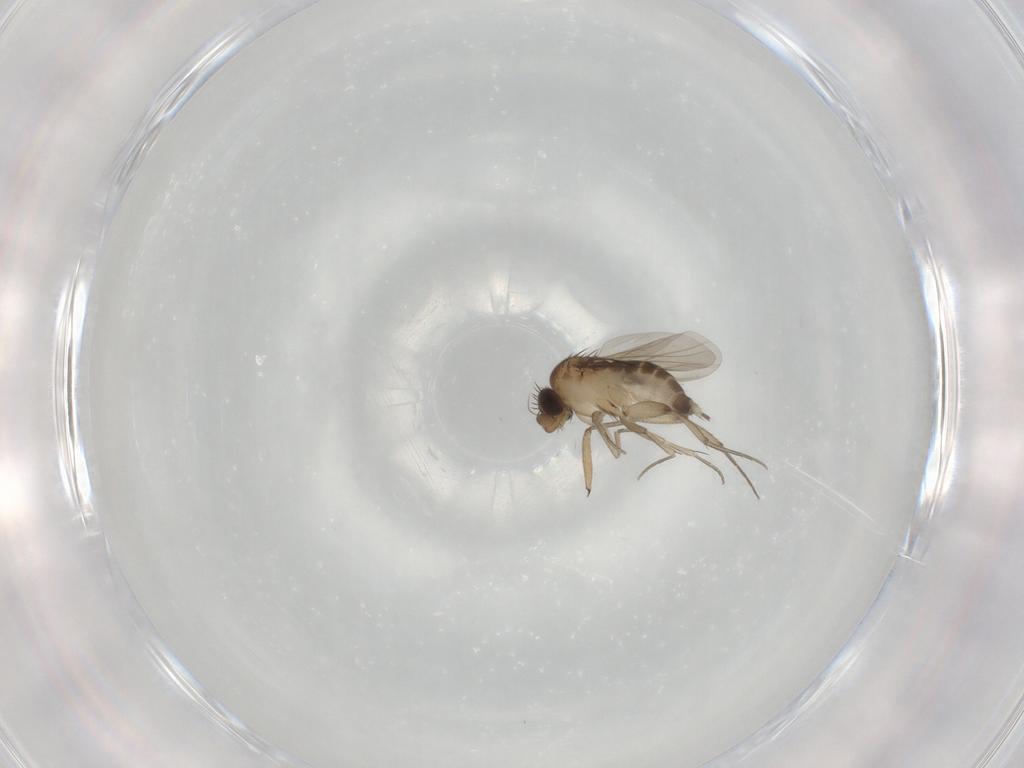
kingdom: Animalia
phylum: Arthropoda
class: Insecta
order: Diptera
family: Phoridae
